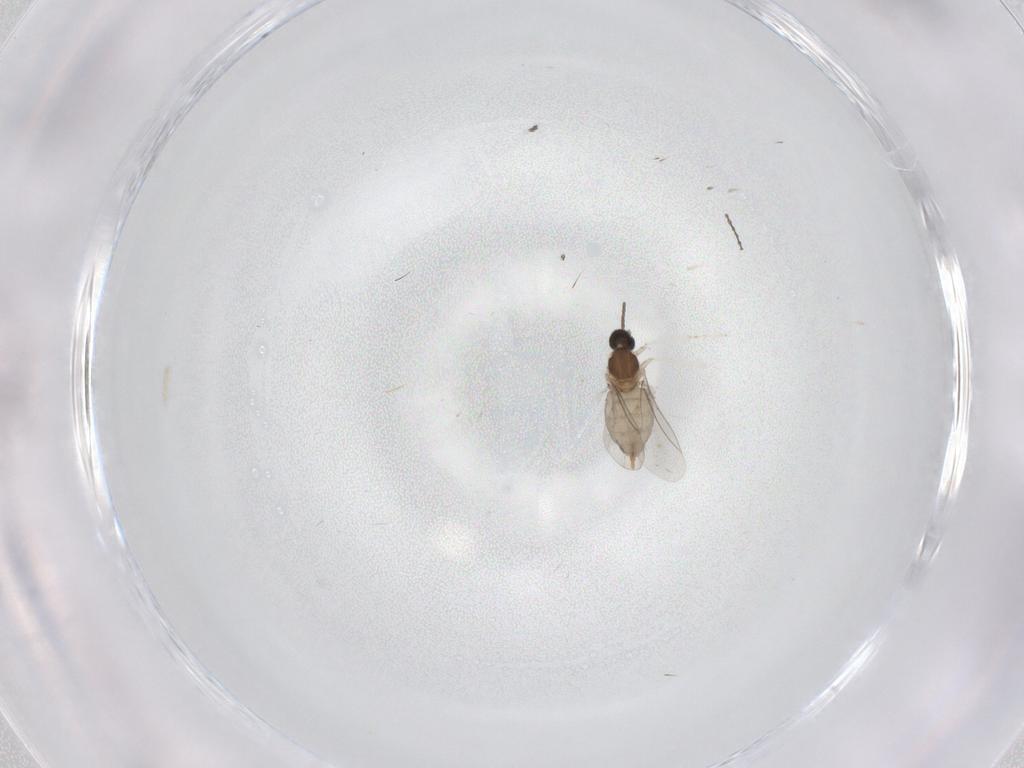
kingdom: Animalia
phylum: Arthropoda
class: Insecta
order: Diptera
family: Cecidomyiidae
